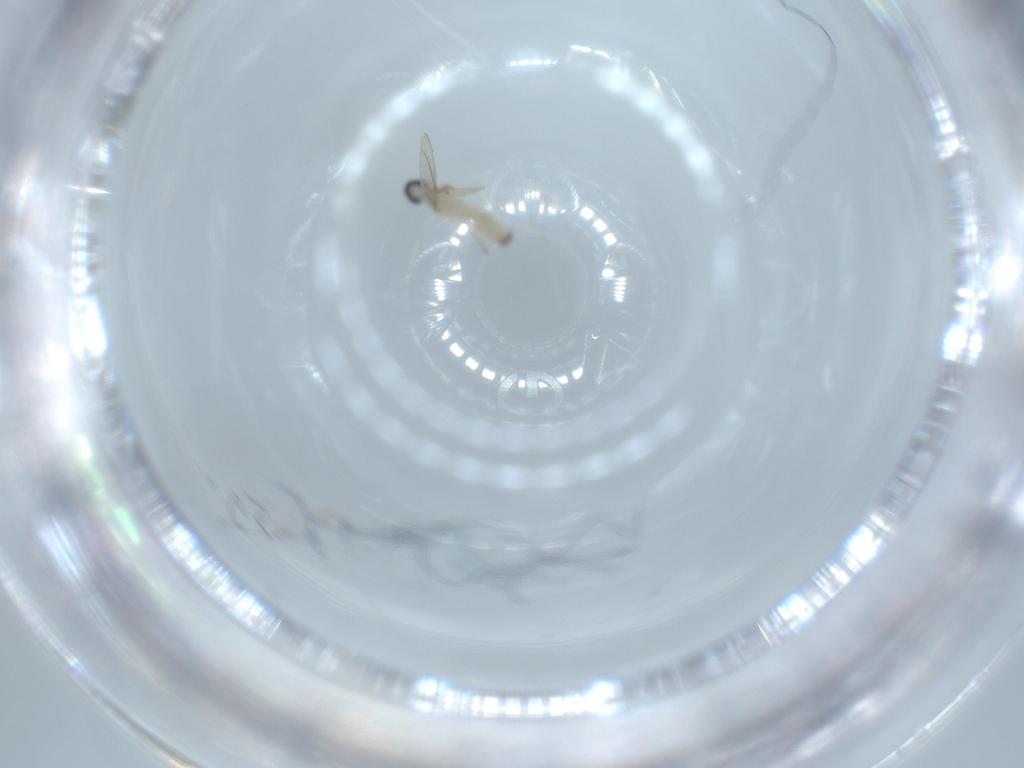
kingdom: Animalia
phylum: Arthropoda
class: Insecta
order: Diptera
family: Cecidomyiidae
